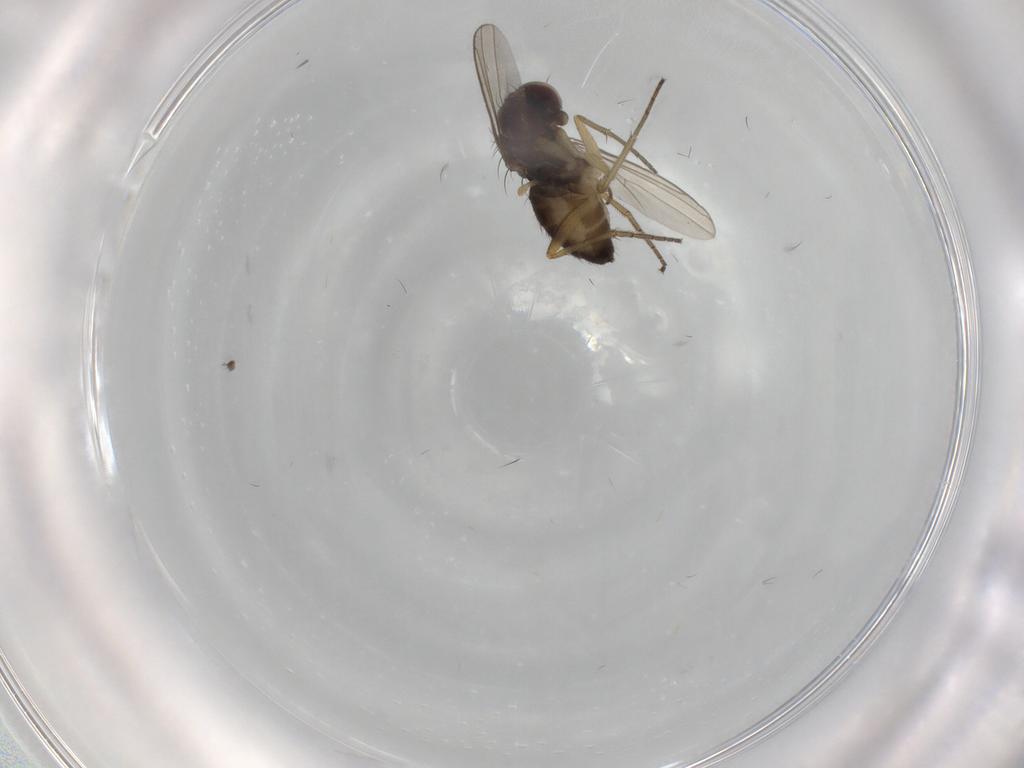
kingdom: Animalia
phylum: Arthropoda
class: Insecta
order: Diptera
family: Dolichopodidae
